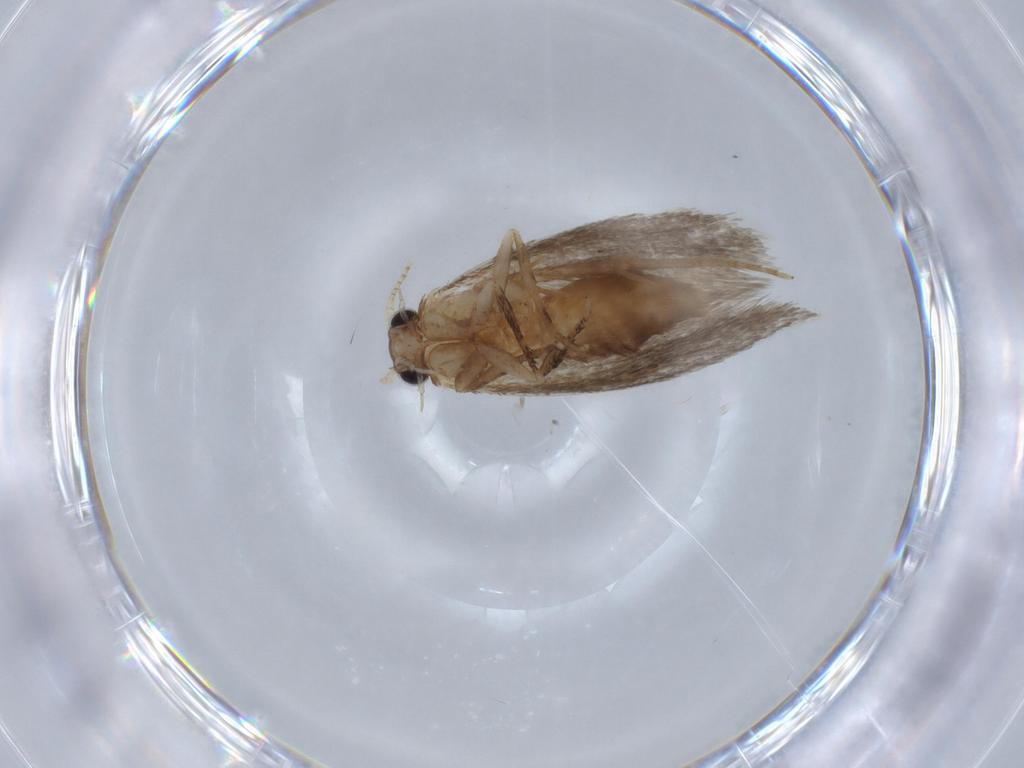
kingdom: Animalia
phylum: Arthropoda
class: Insecta
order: Lepidoptera
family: Tineidae
